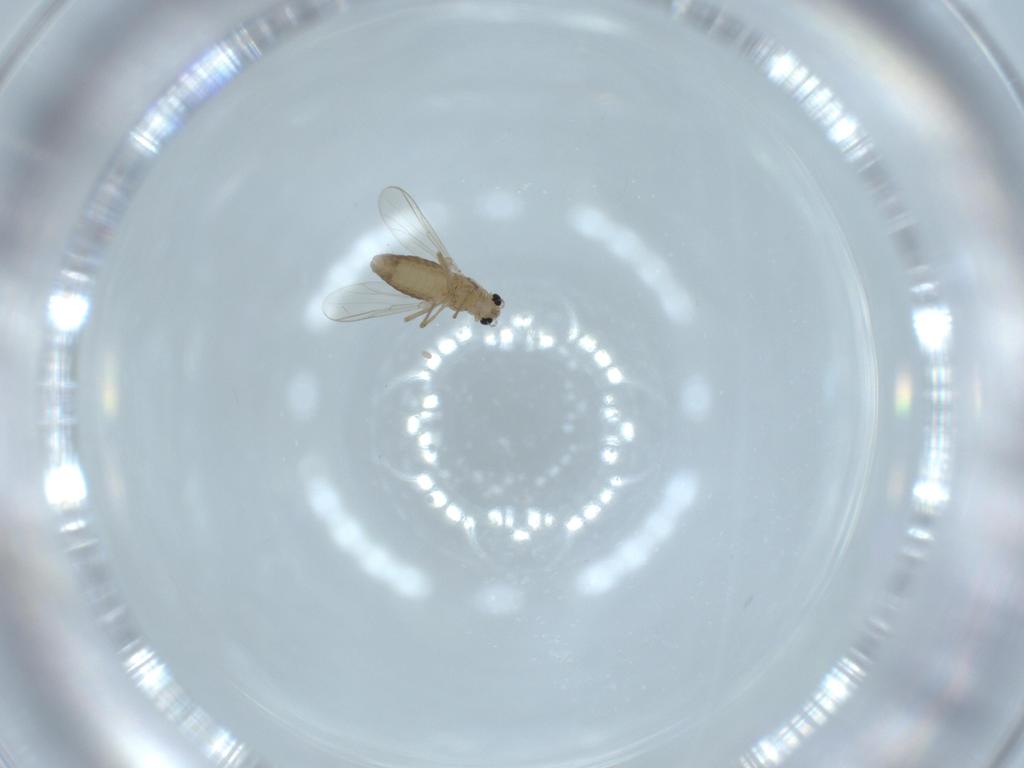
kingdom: Animalia
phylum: Arthropoda
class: Insecta
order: Diptera
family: Chironomidae
